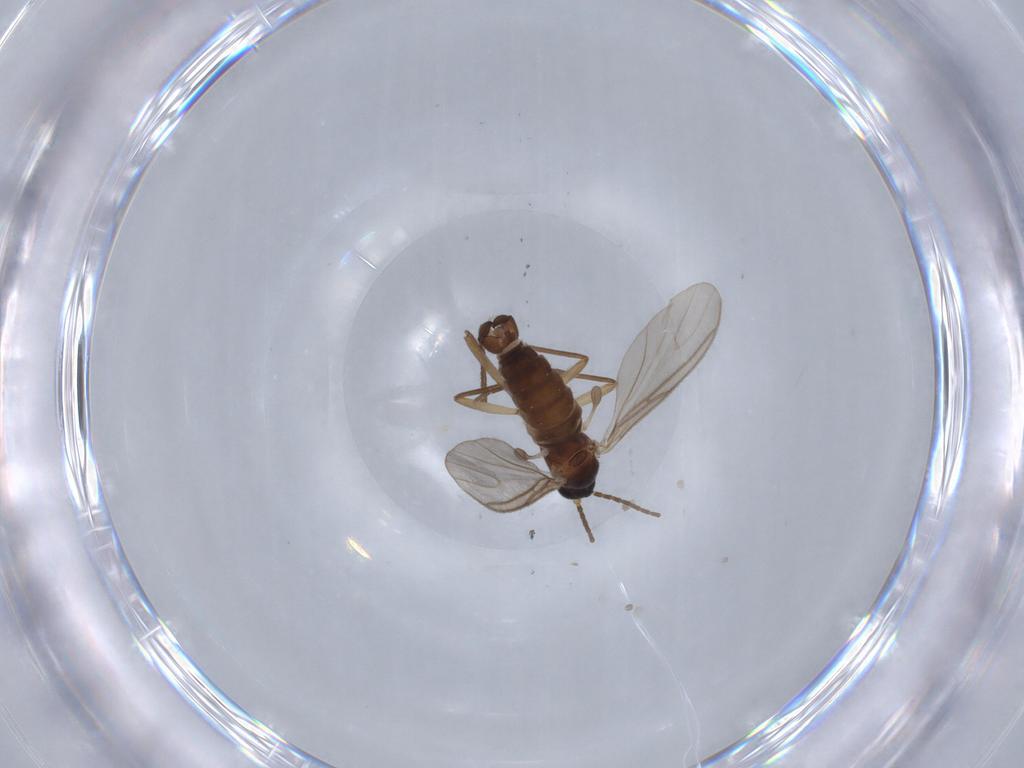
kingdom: Animalia
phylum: Arthropoda
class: Insecta
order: Diptera
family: Sciaridae
